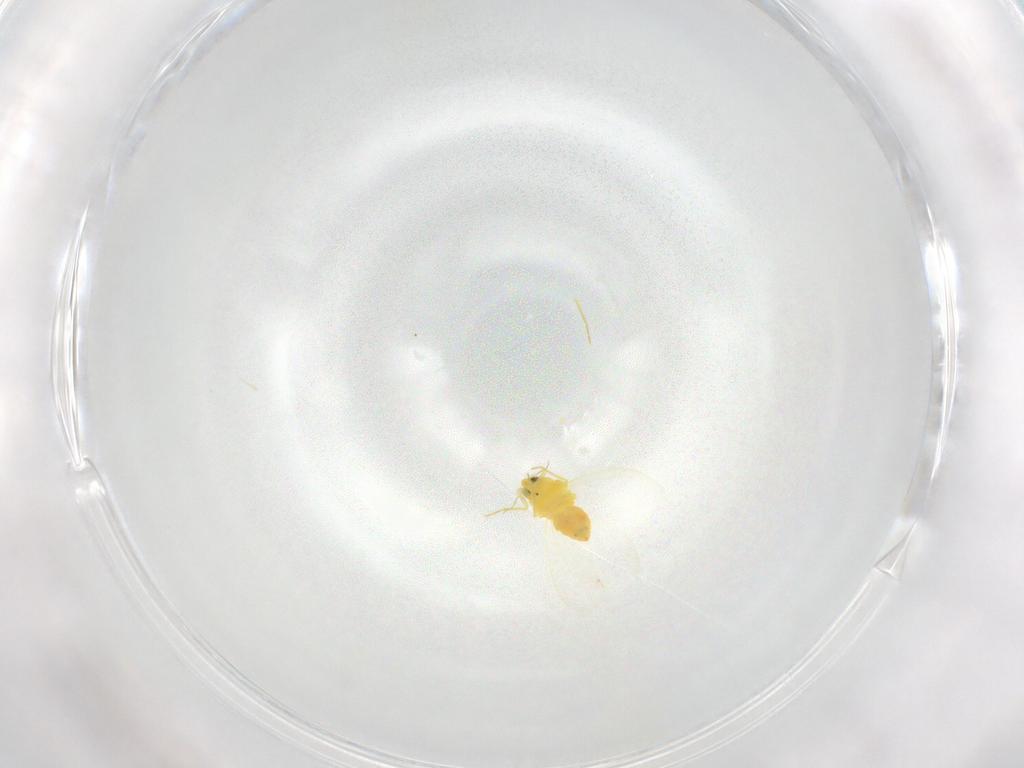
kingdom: Animalia
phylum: Arthropoda
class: Insecta
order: Hemiptera
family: Aleyrodidae
